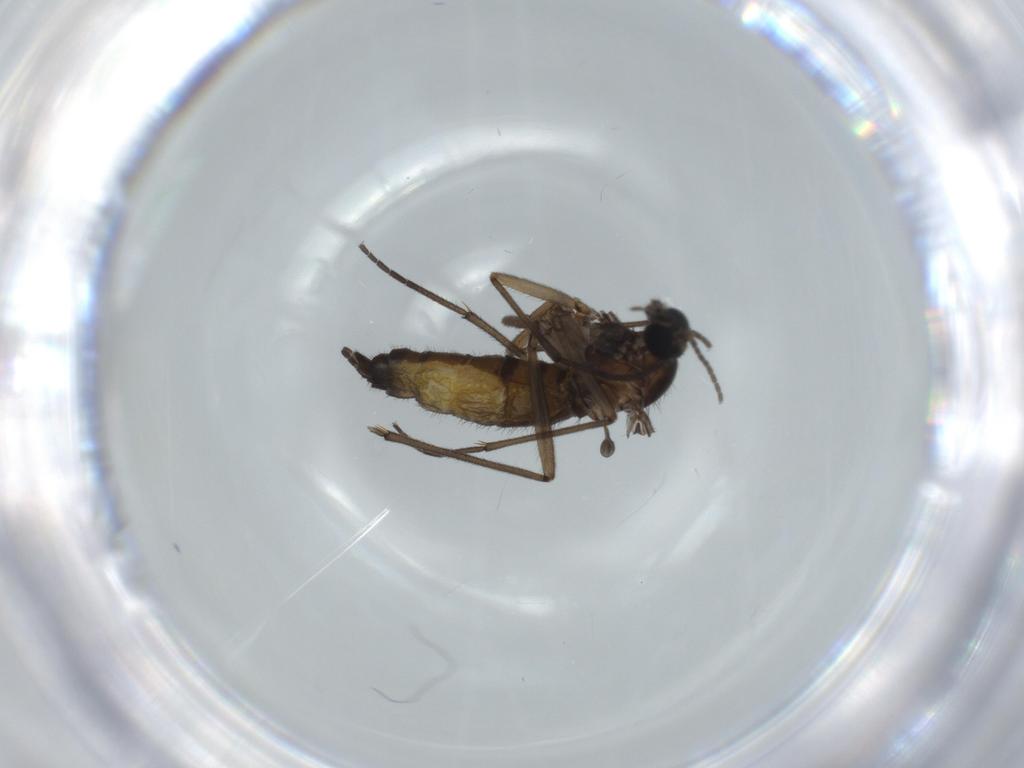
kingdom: Animalia
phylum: Arthropoda
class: Insecta
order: Diptera
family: Sciaridae
